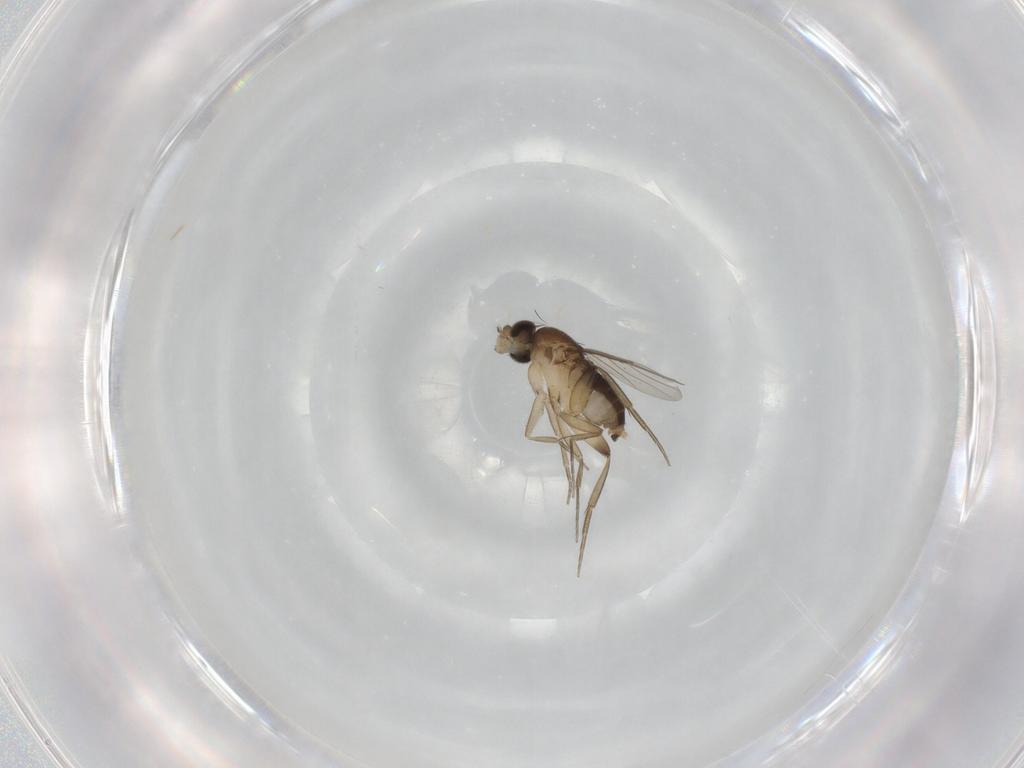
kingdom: Animalia
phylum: Arthropoda
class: Insecta
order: Diptera
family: Phoridae
